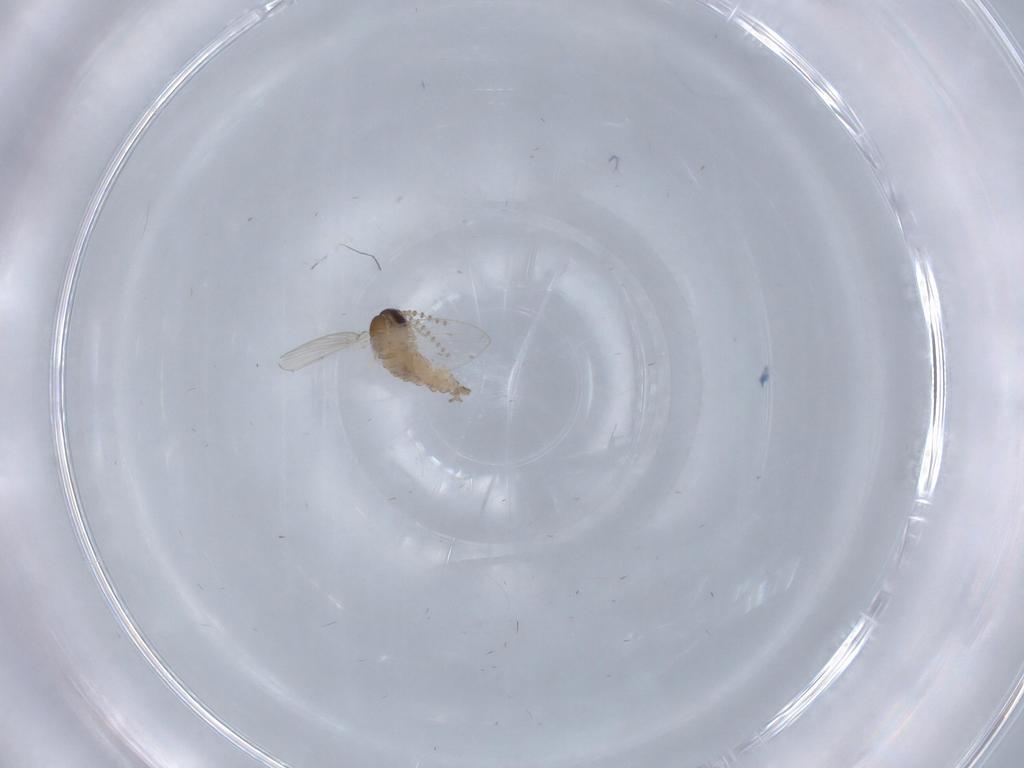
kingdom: Animalia
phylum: Arthropoda
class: Insecta
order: Diptera
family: Psychodidae
